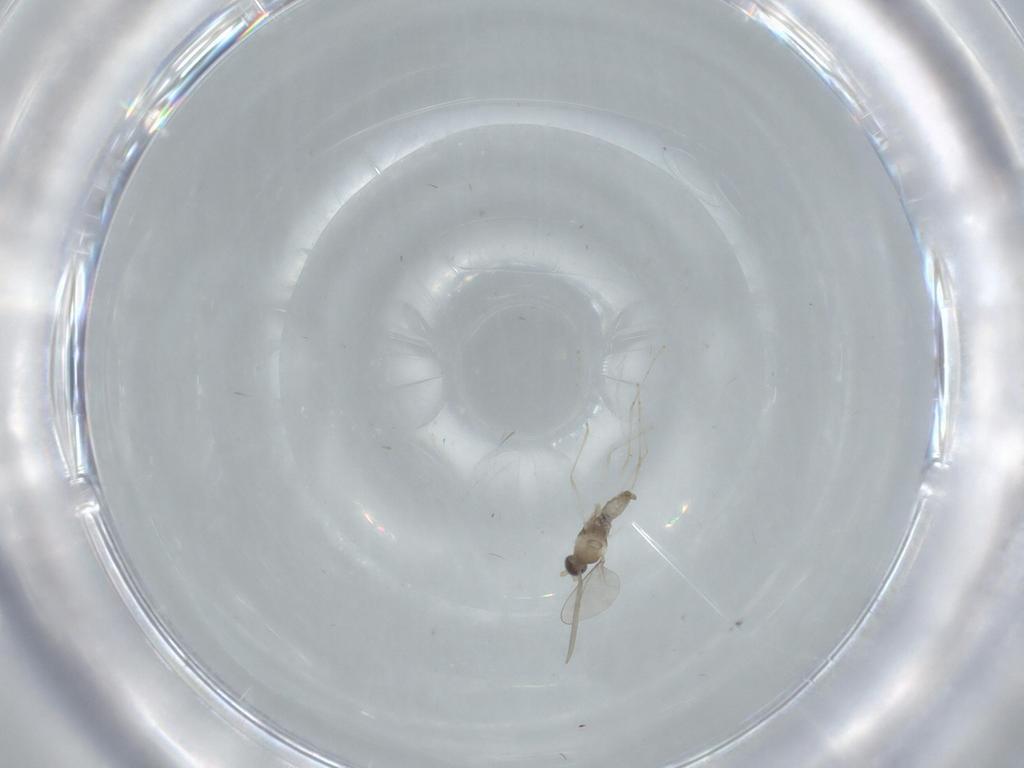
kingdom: Animalia
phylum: Arthropoda
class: Insecta
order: Diptera
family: Cecidomyiidae
